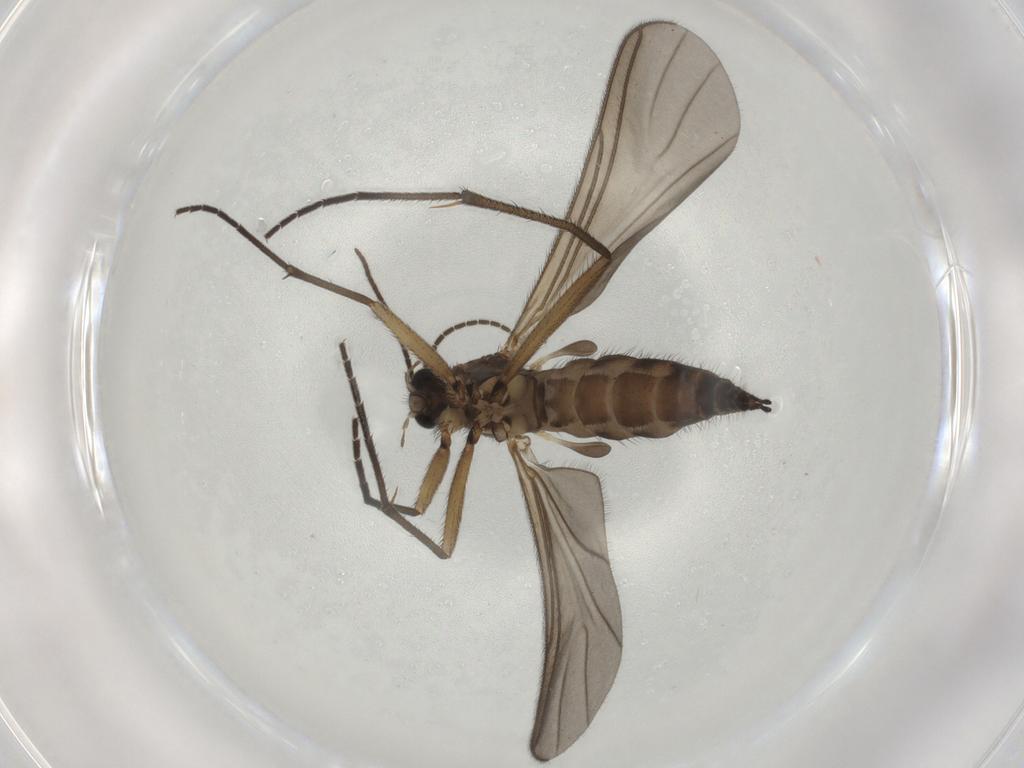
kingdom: Animalia
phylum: Arthropoda
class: Insecta
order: Diptera
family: Sciaridae
